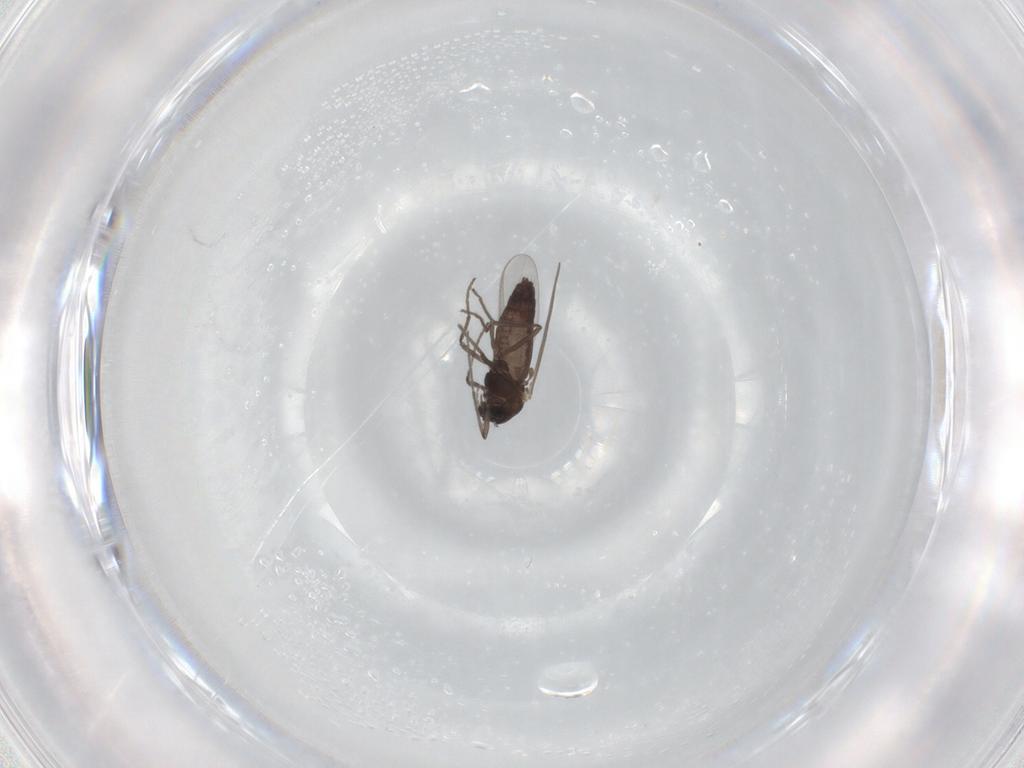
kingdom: Animalia
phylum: Arthropoda
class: Insecta
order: Diptera
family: Chironomidae
